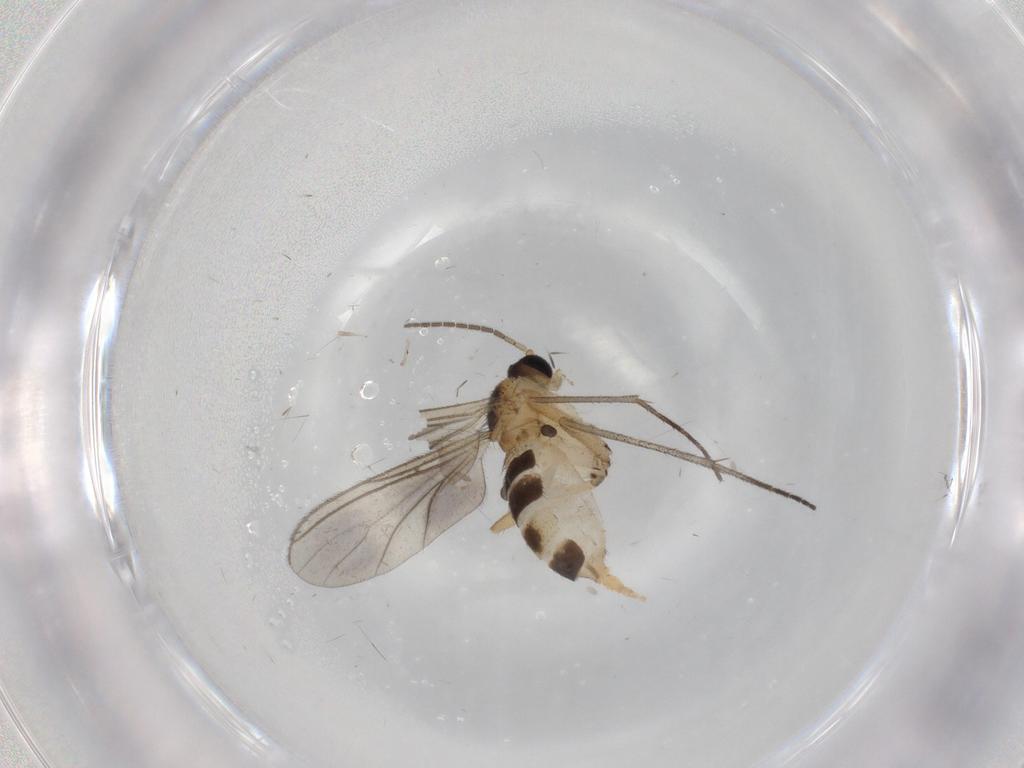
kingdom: Animalia
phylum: Arthropoda
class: Insecta
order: Diptera
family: Sciaridae
